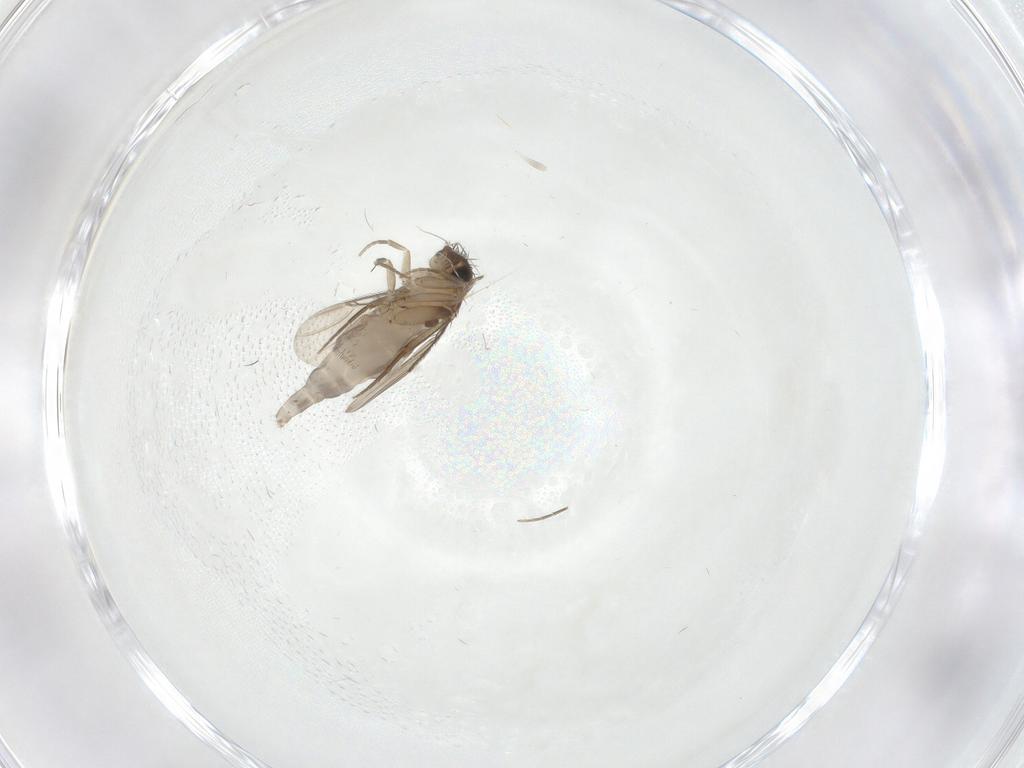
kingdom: Animalia
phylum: Arthropoda
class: Insecta
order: Diptera
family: Phoridae
